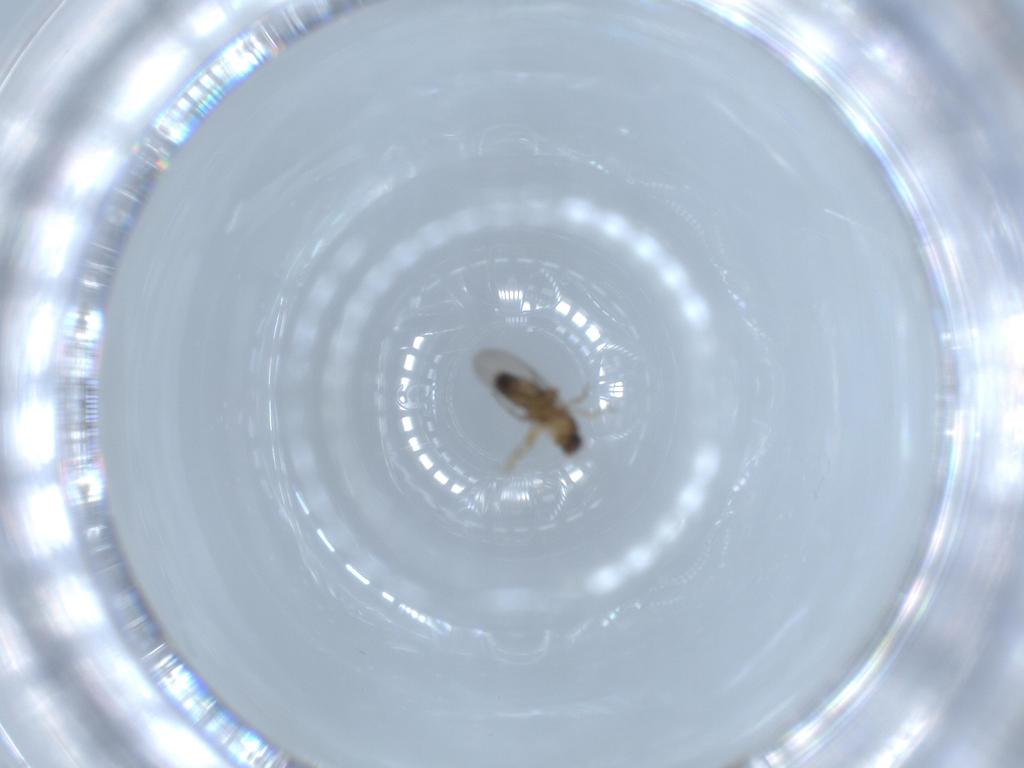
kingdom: Animalia
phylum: Arthropoda
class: Insecta
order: Diptera
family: Phoridae
